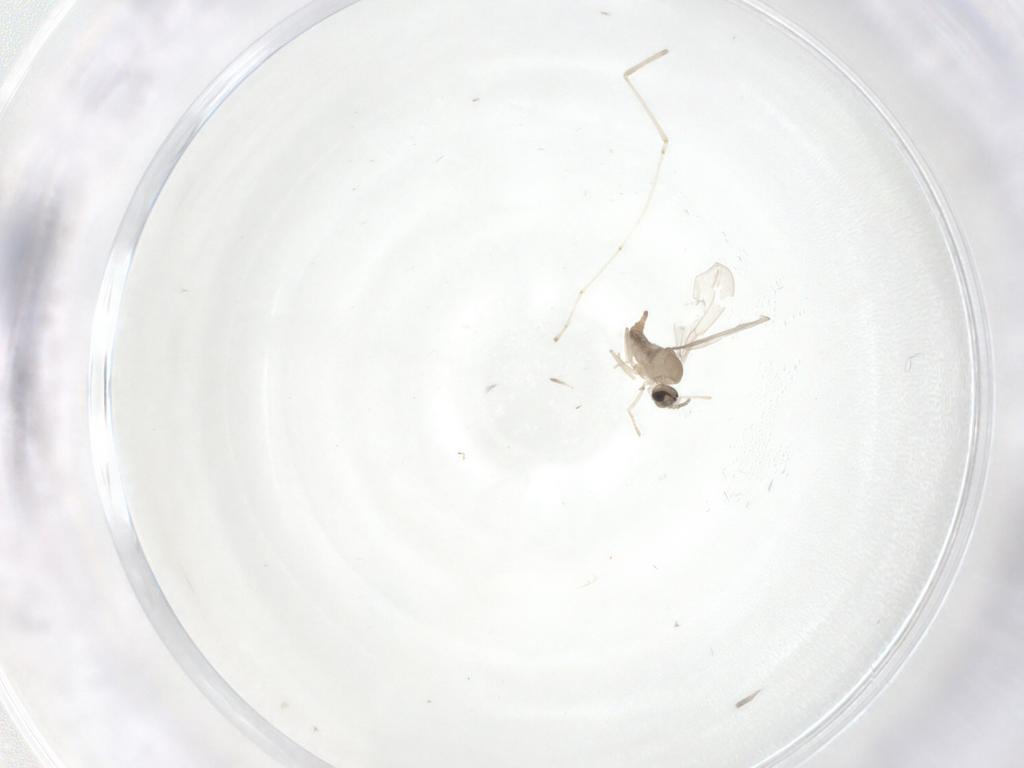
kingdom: Animalia
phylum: Arthropoda
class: Insecta
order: Diptera
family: Cecidomyiidae
